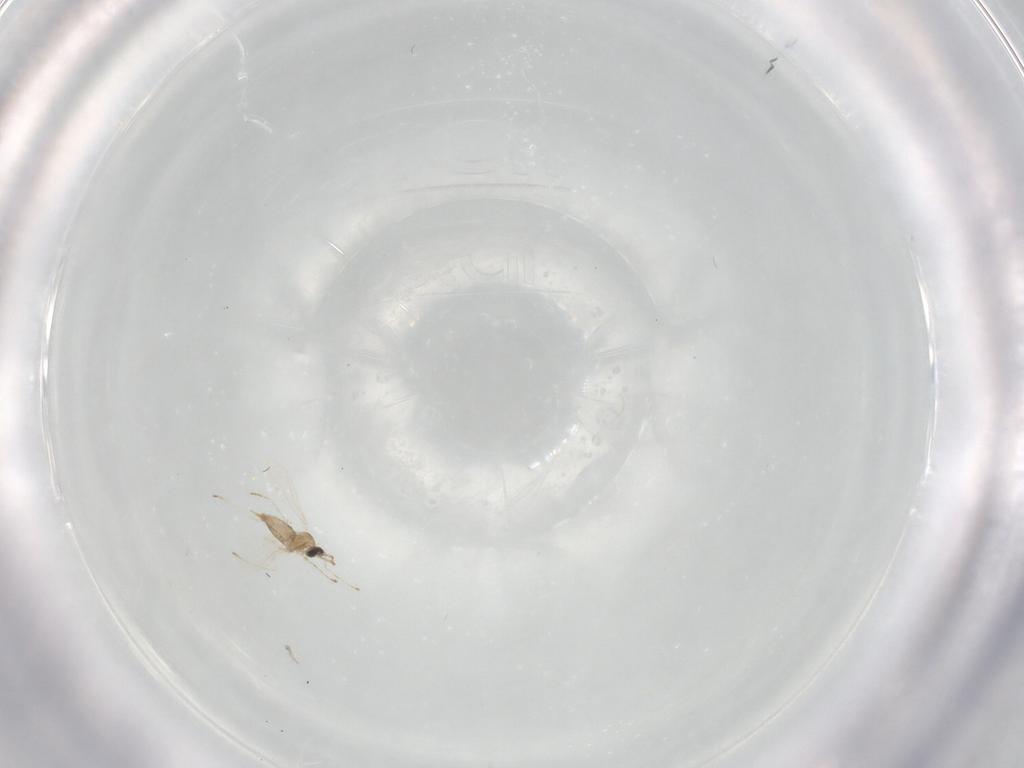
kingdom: Animalia
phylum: Arthropoda
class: Insecta
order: Diptera
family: Cecidomyiidae
